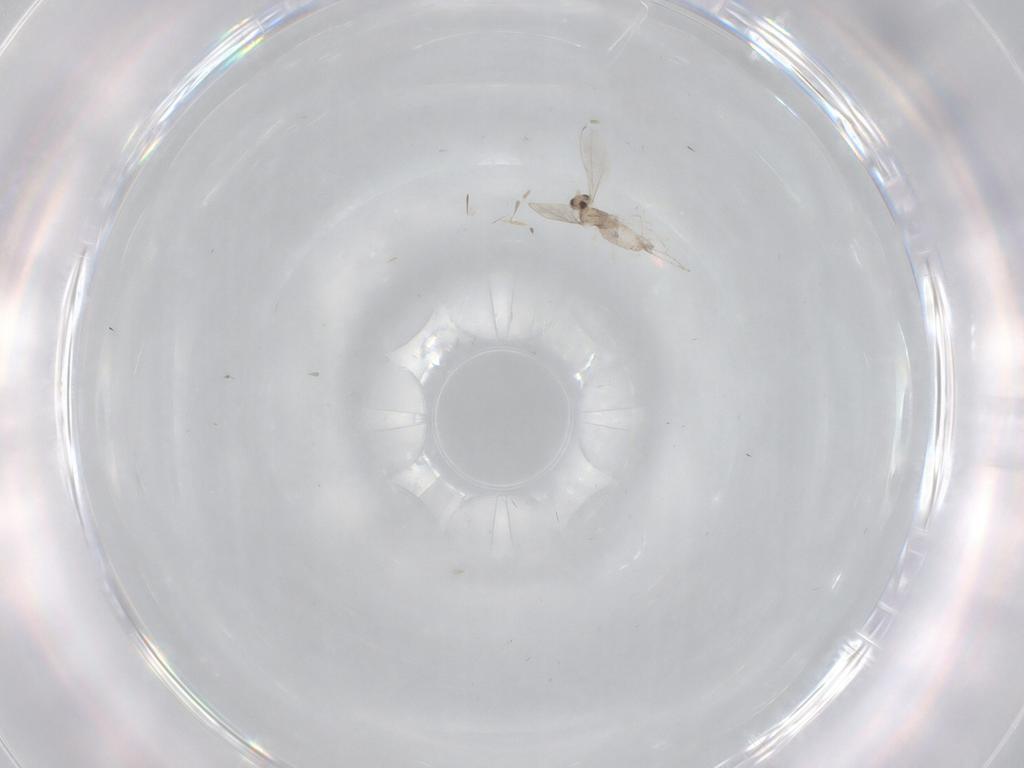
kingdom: Animalia
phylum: Arthropoda
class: Insecta
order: Diptera
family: Cecidomyiidae
